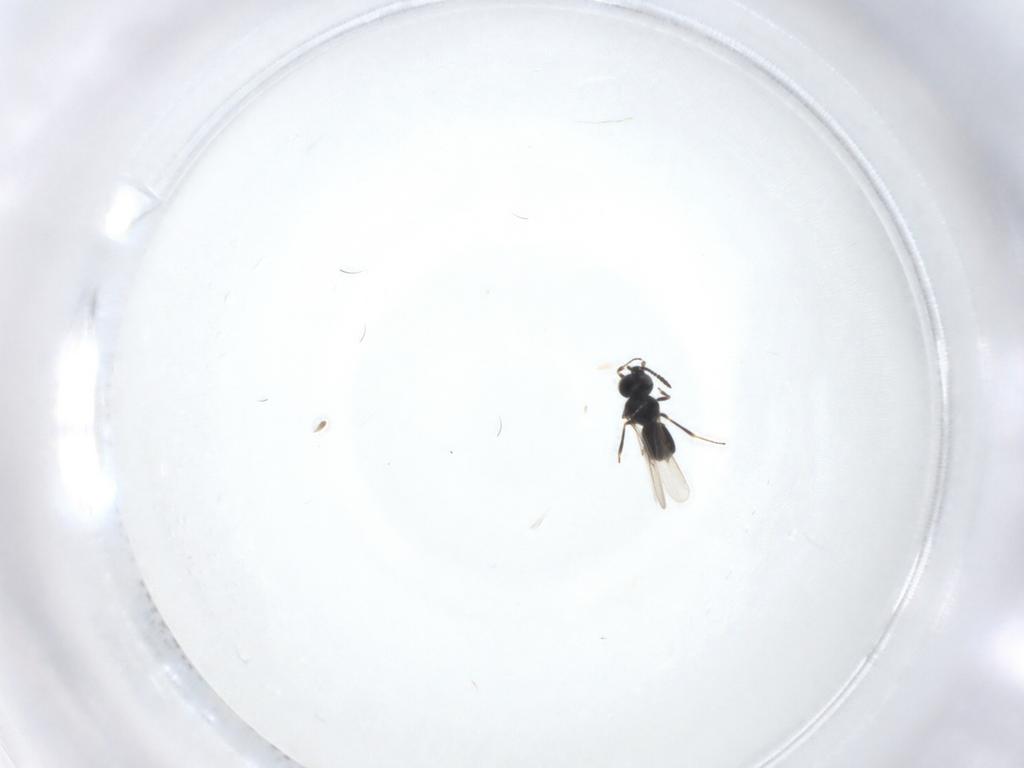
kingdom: Animalia
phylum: Arthropoda
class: Insecta
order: Hymenoptera
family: Scelionidae
